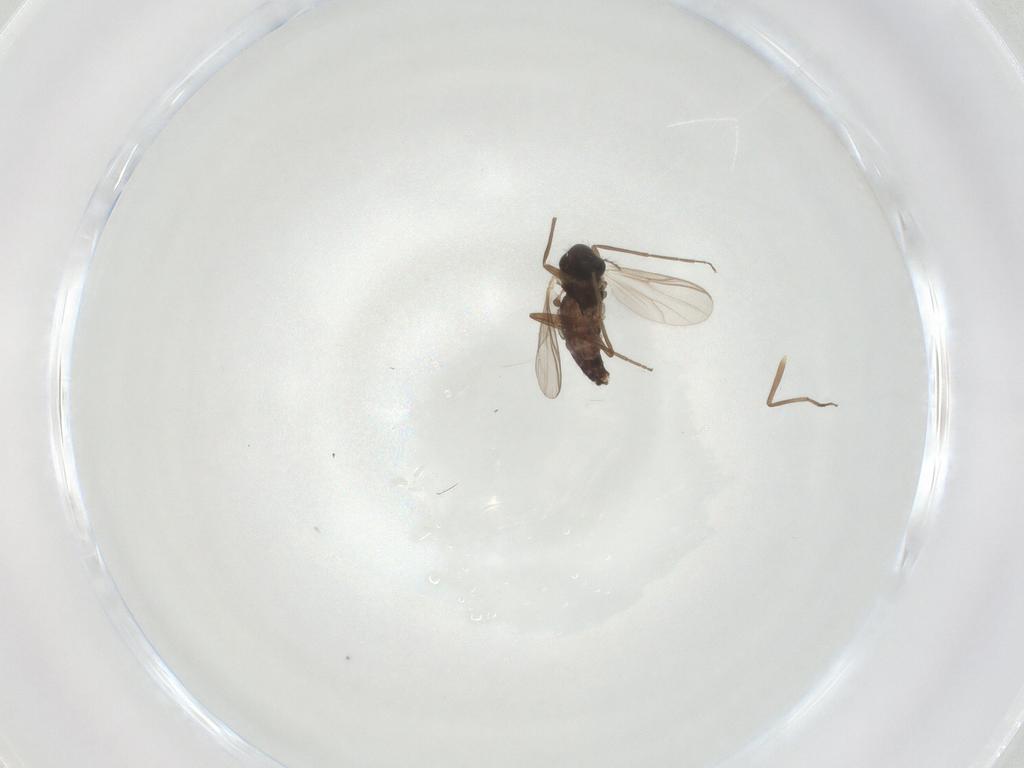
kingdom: Animalia
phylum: Arthropoda
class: Insecta
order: Diptera
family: Chironomidae
